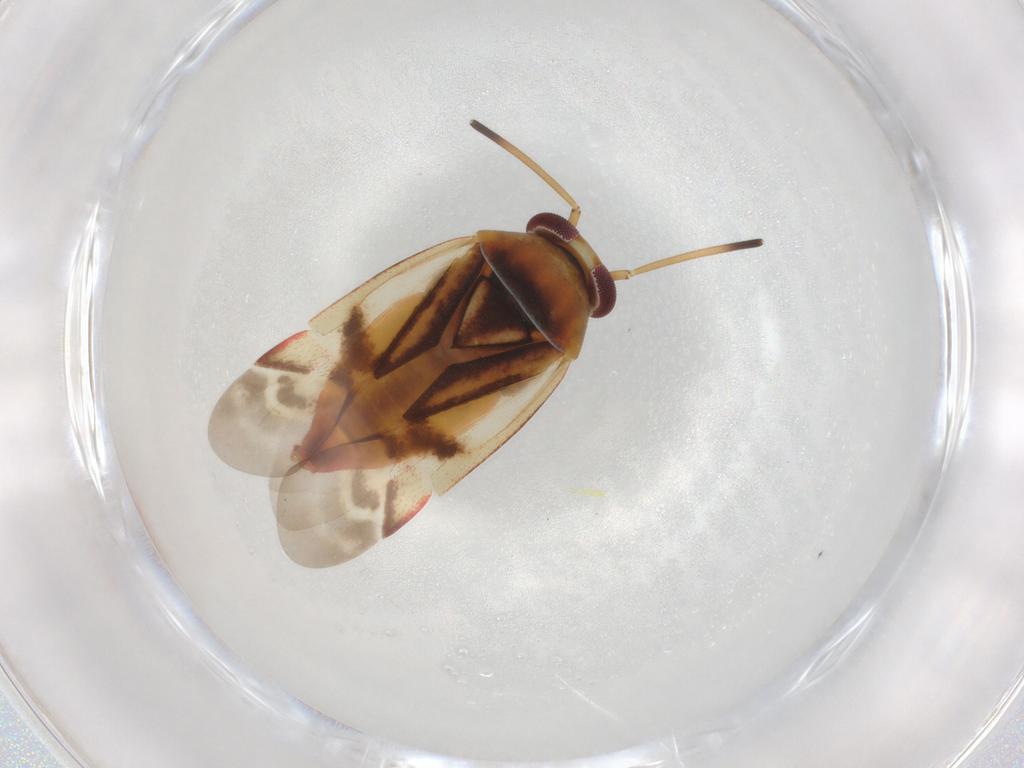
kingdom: Animalia
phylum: Arthropoda
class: Insecta
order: Hemiptera
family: Miridae
